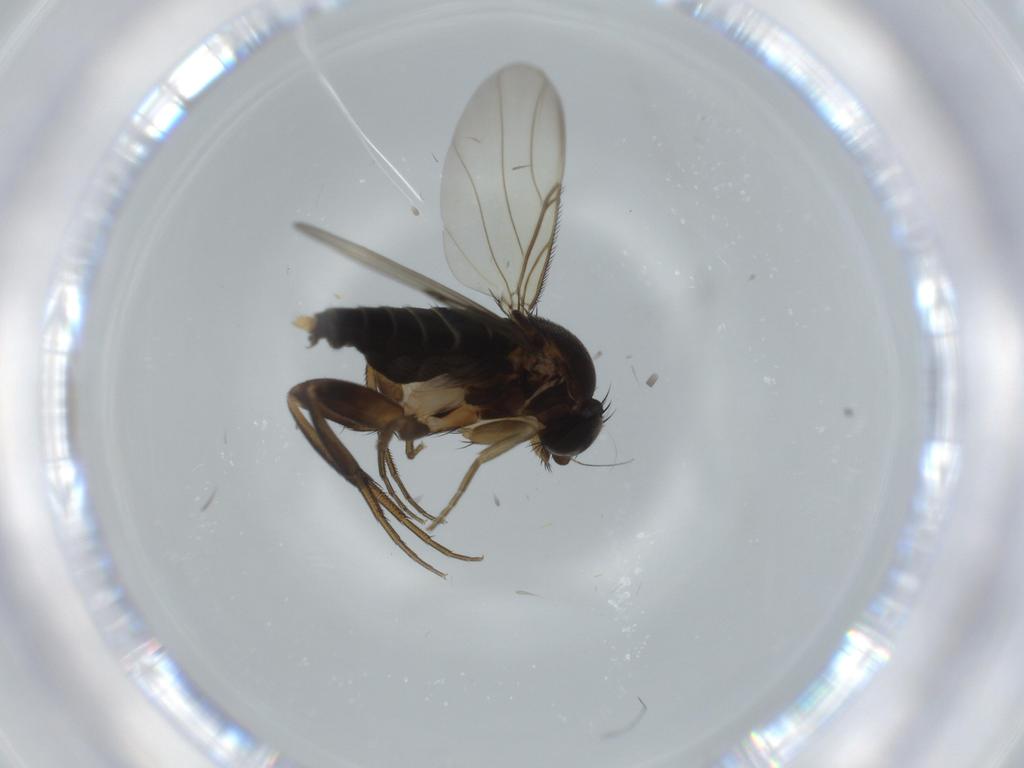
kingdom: Animalia
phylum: Arthropoda
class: Insecta
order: Diptera
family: Phoridae
